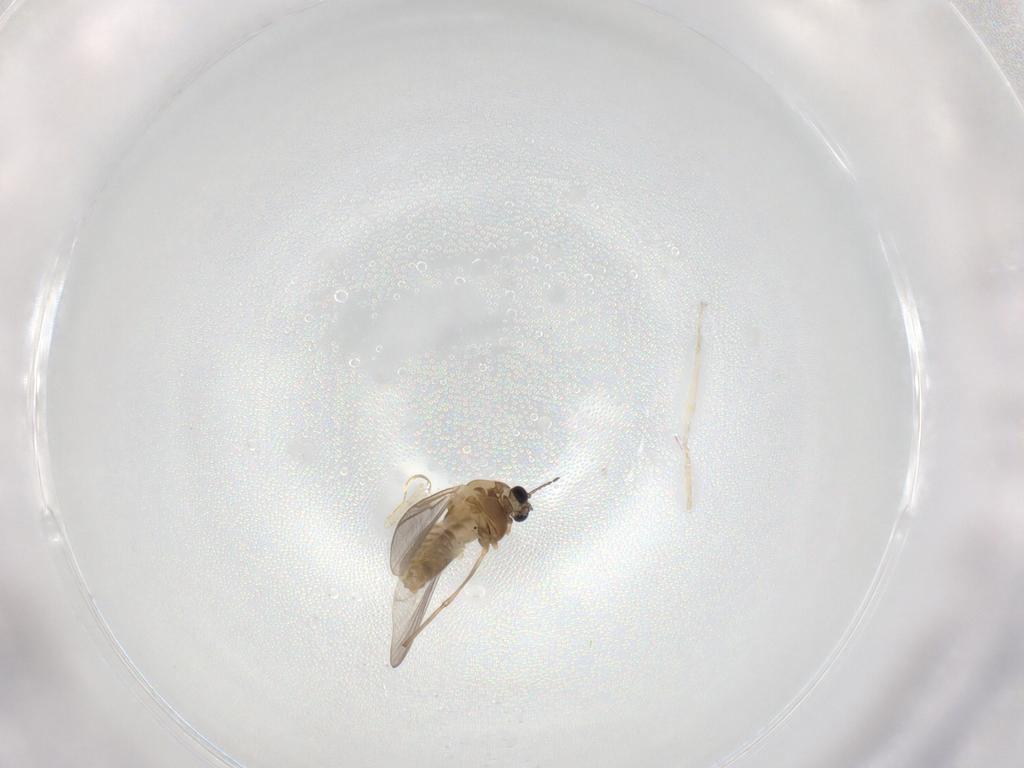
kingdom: Animalia
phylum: Arthropoda
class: Insecta
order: Diptera
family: Chironomidae
